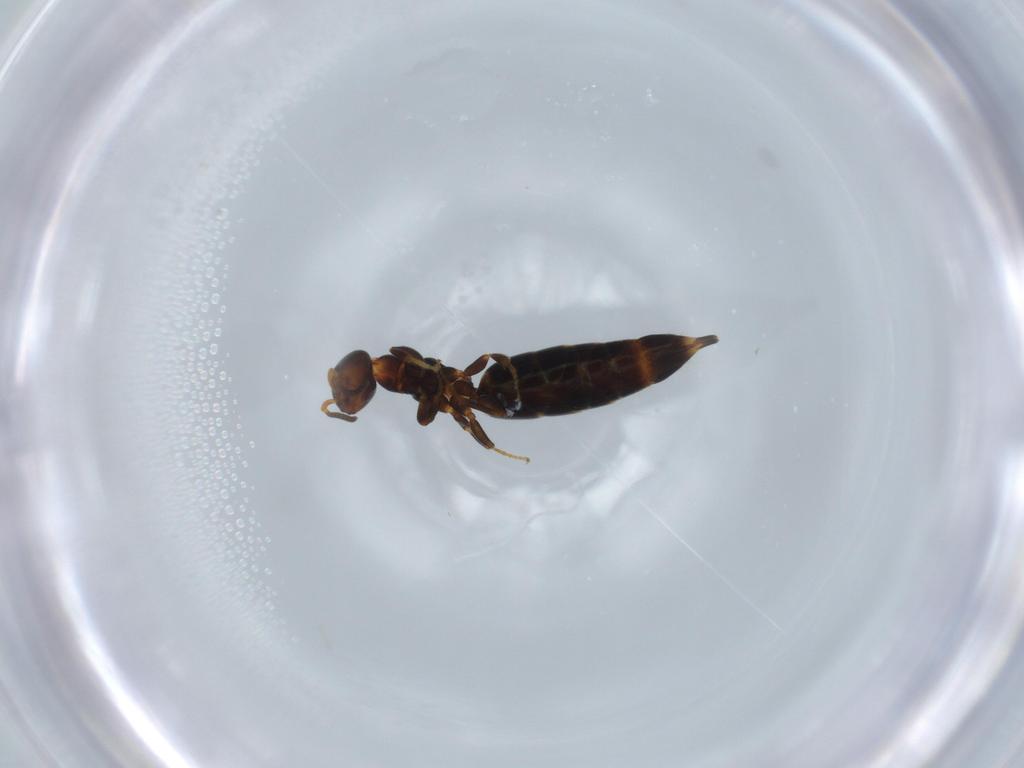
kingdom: Animalia
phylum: Arthropoda
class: Insecta
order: Hymenoptera
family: Bethylidae
